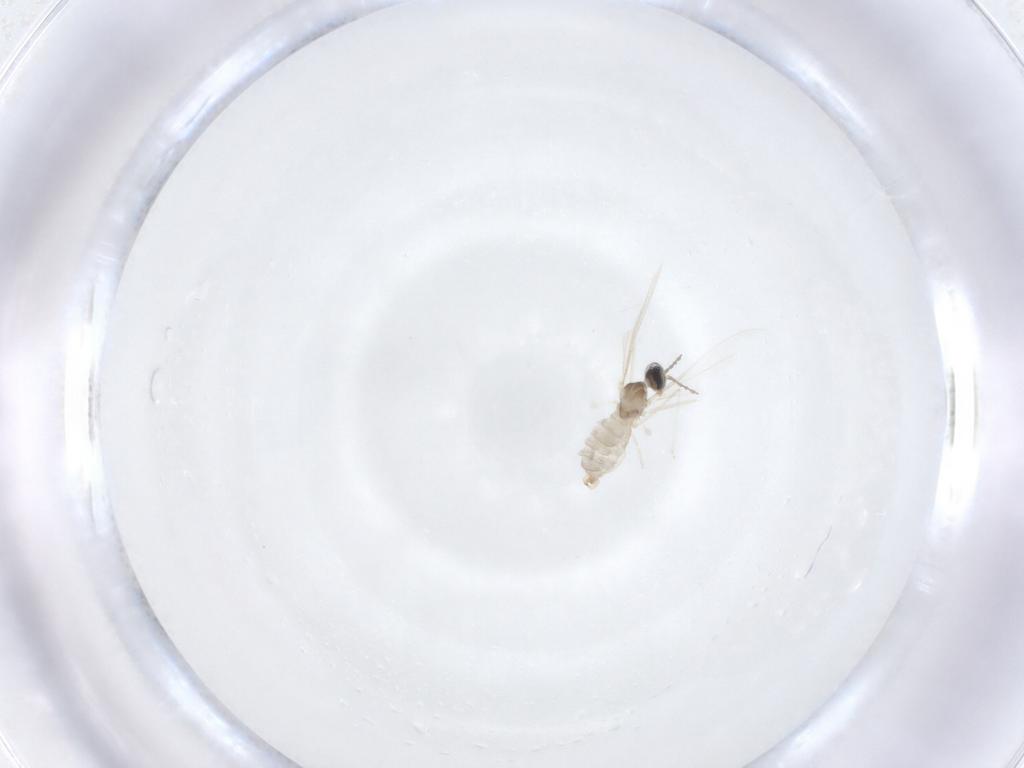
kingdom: Animalia
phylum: Arthropoda
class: Insecta
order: Diptera
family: Cecidomyiidae
